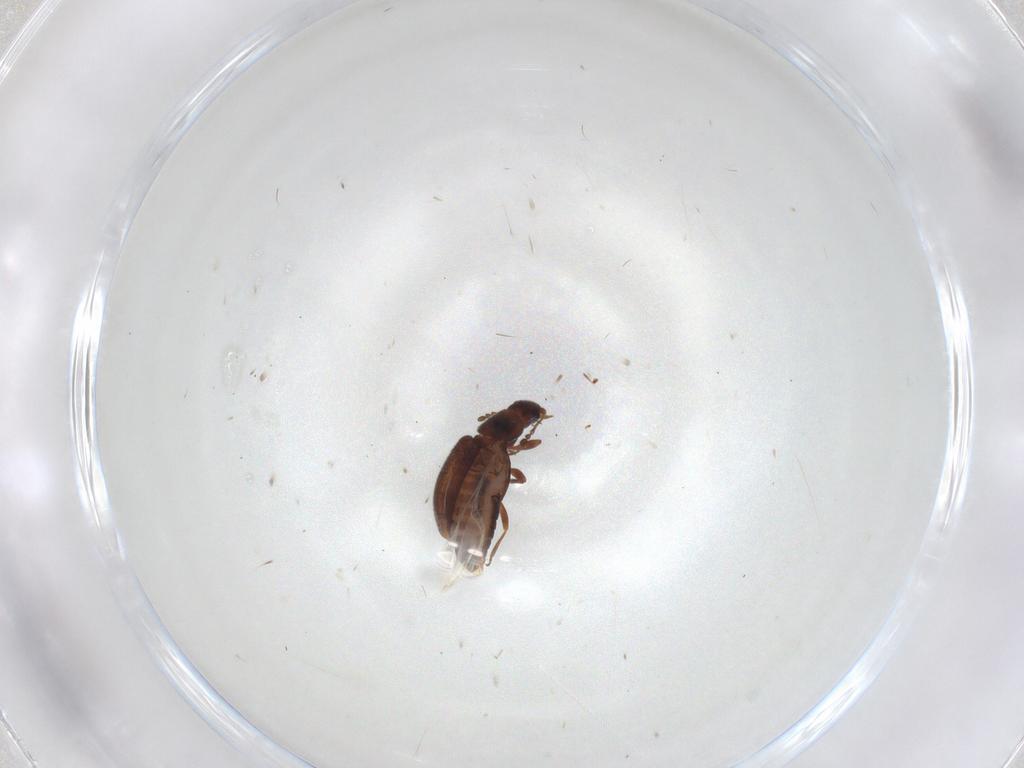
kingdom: Animalia
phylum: Arthropoda
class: Insecta
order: Coleoptera
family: Latridiidae
